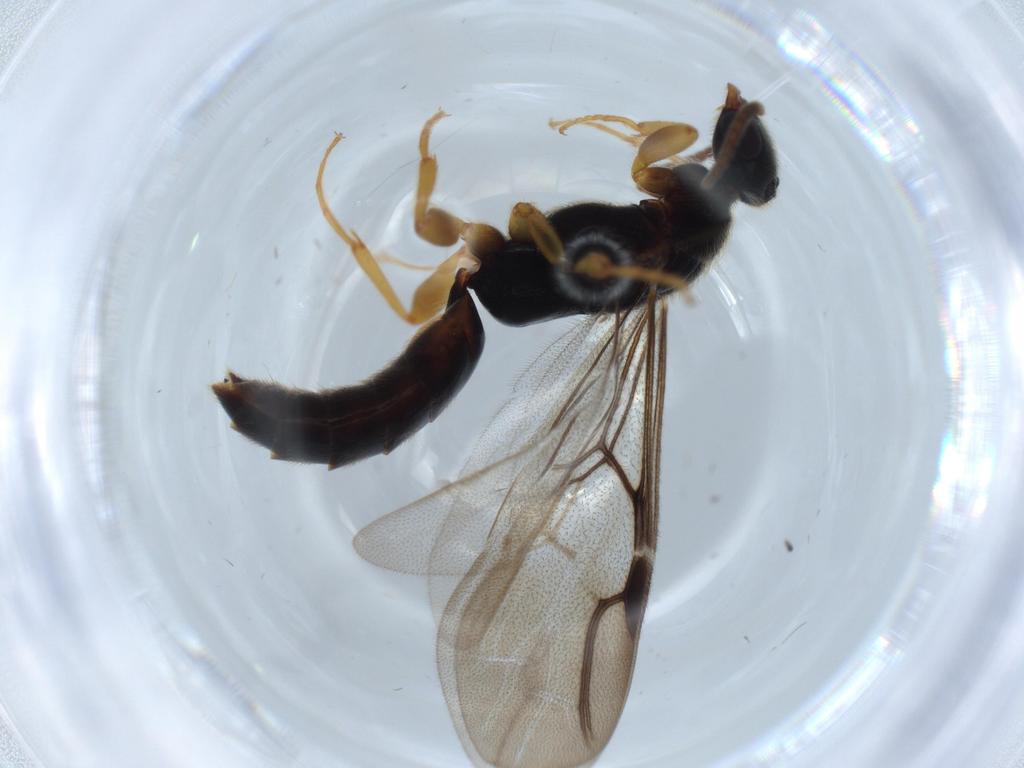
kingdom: Animalia
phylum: Arthropoda
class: Insecta
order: Hymenoptera
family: Bethylidae
